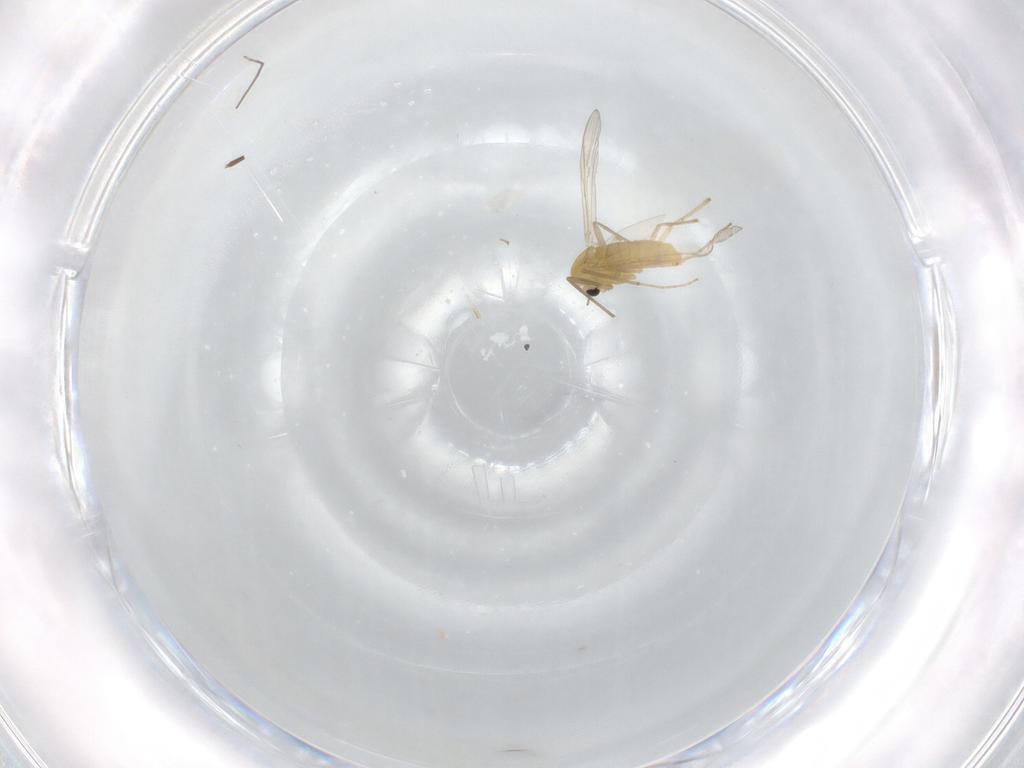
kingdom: Animalia
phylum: Arthropoda
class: Insecta
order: Diptera
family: Chironomidae
